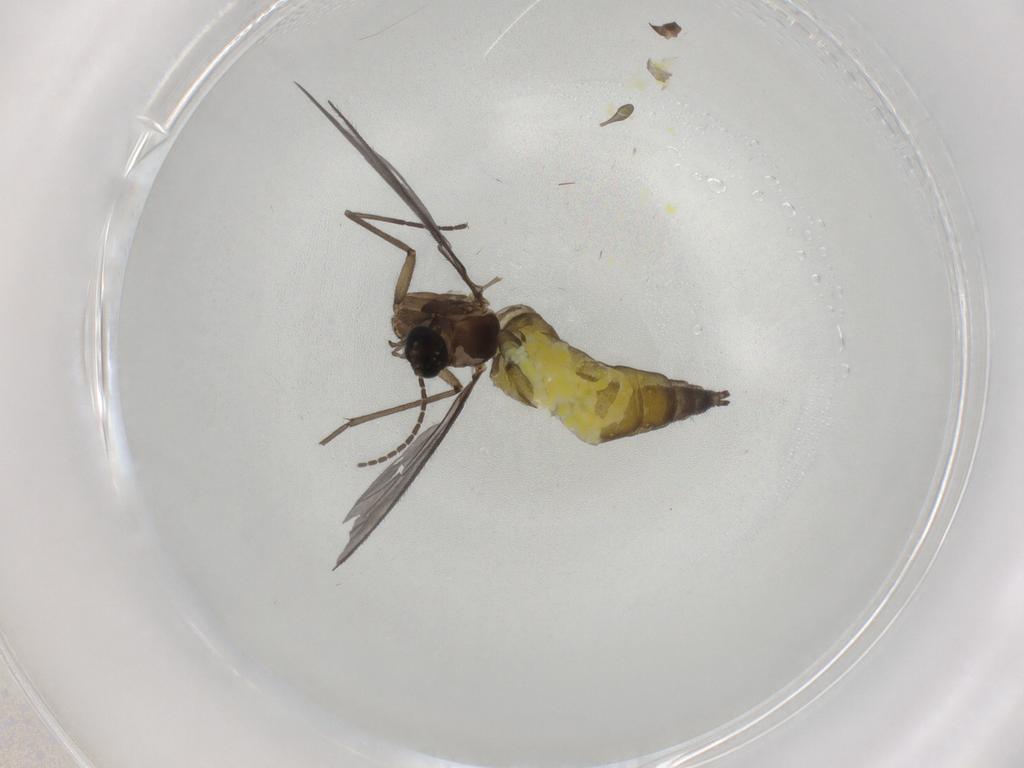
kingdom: Animalia
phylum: Arthropoda
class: Insecta
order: Diptera
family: Sciaridae
